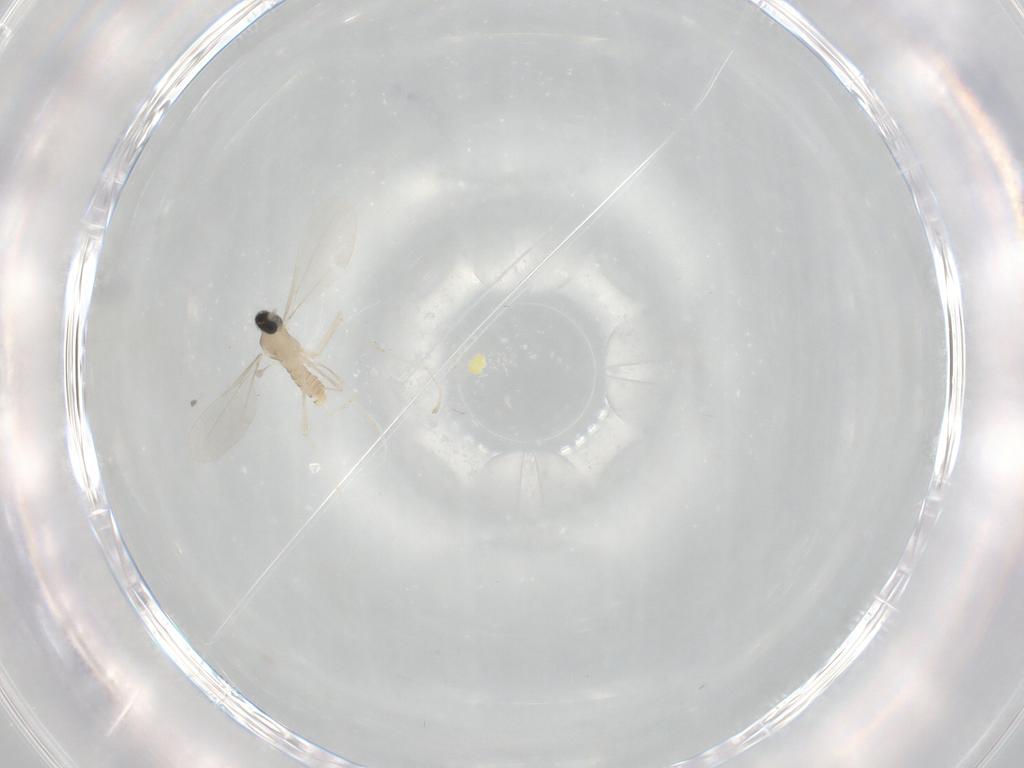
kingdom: Animalia
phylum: Arthropoda
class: Insecta
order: Diptera
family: Cecidomyiidae
